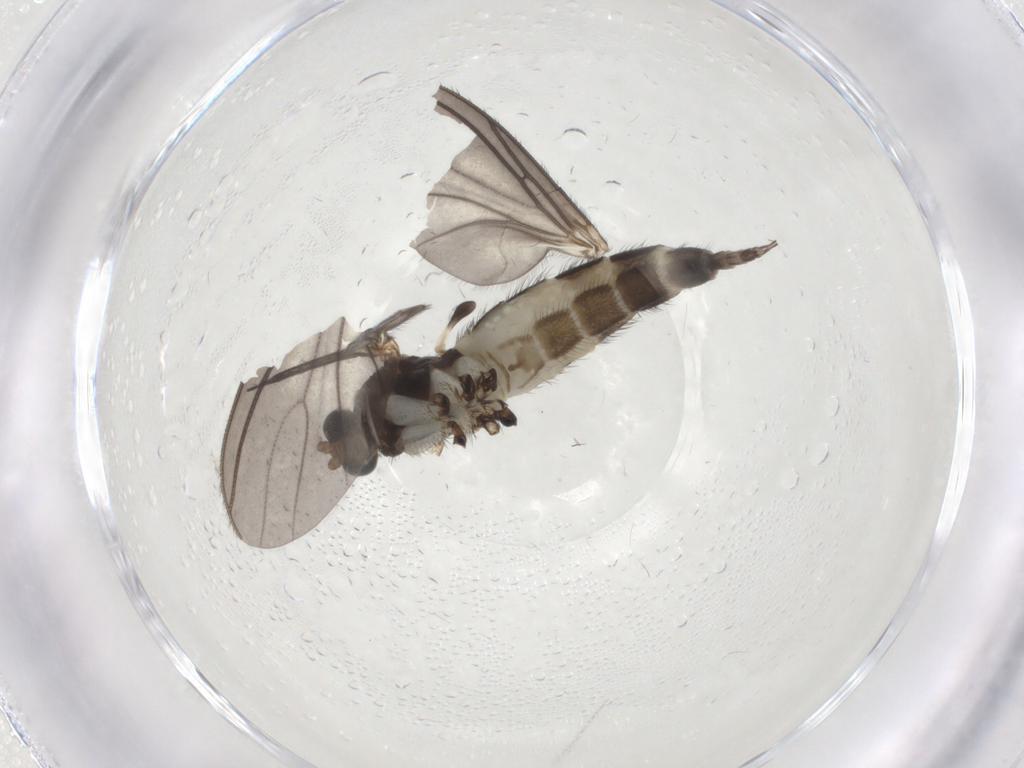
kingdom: Animalia
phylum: Arthropoda
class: Insecta
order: Diptera
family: Sciaridae
